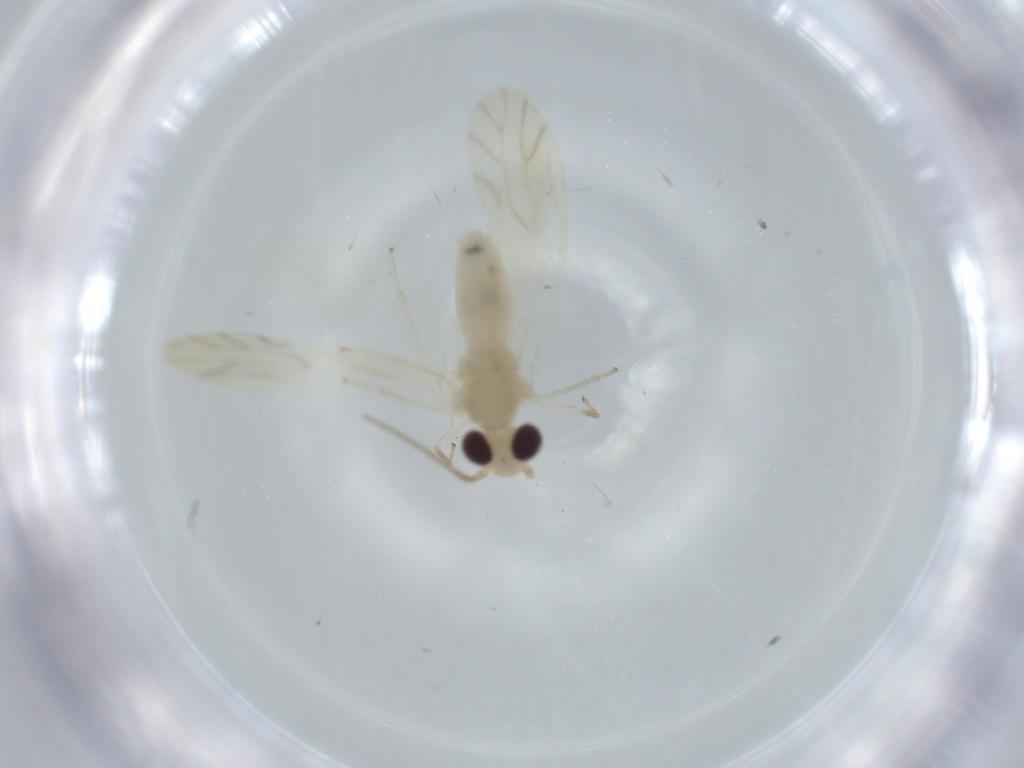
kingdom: Animalia
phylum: Arthropoda
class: Insecta
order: Psocodea
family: Caeciliusidae
